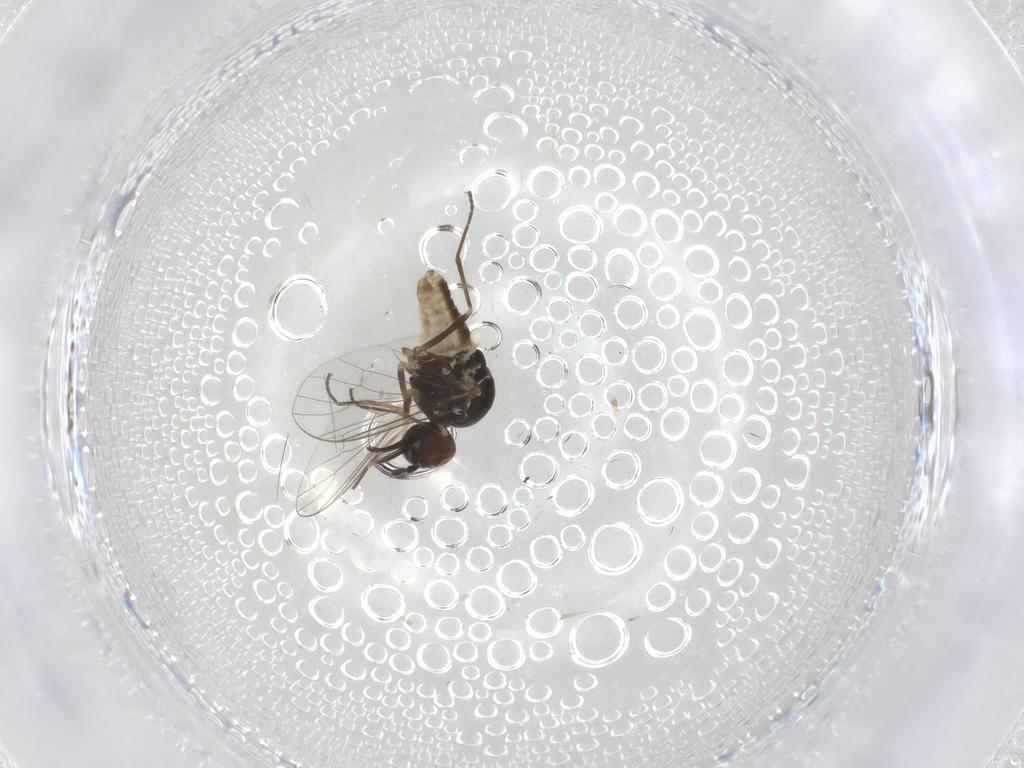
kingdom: Animalia
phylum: Arthropoda
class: Insecta
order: Diptera
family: Bombyliidae
